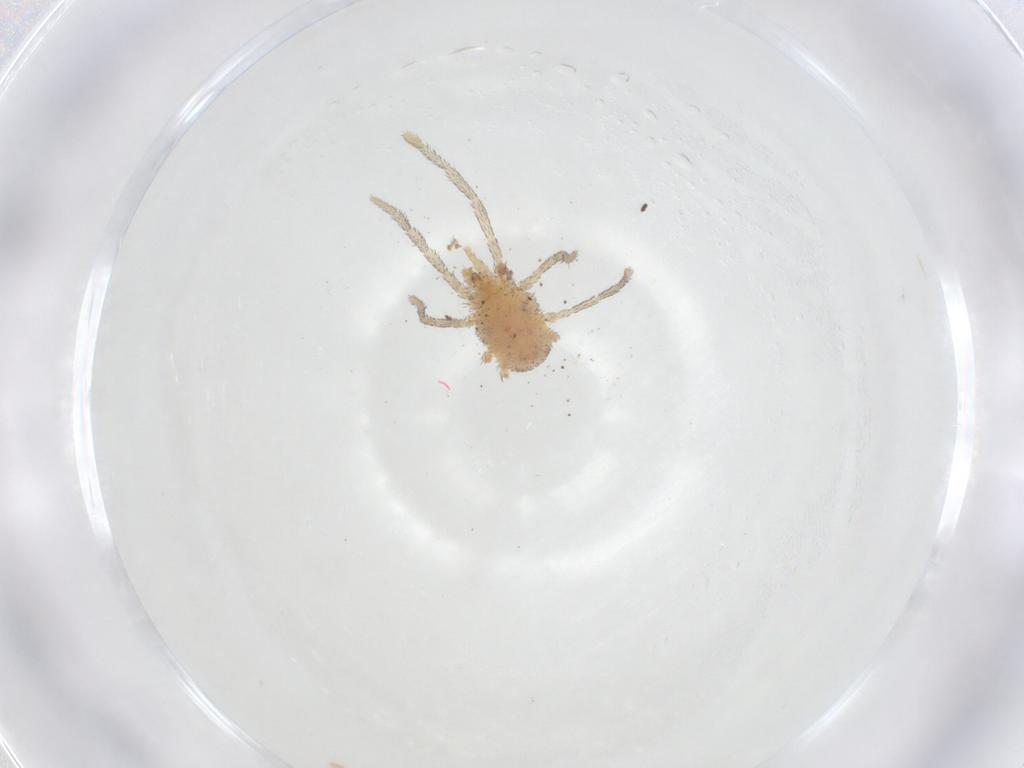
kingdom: Animalia
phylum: Arthropoda
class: Arachnida
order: Trombidiformes
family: Erythraeidae
